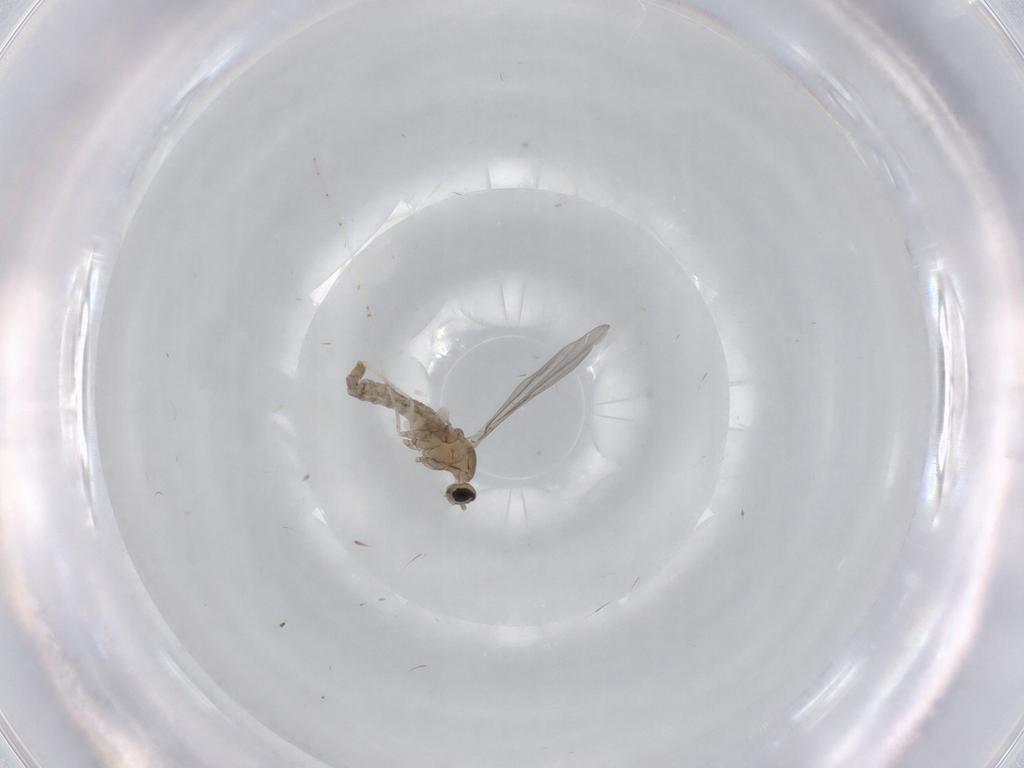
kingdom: Animalia
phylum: Arthropoda
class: Insecta
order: Diptera
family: Cecidomyiidae
